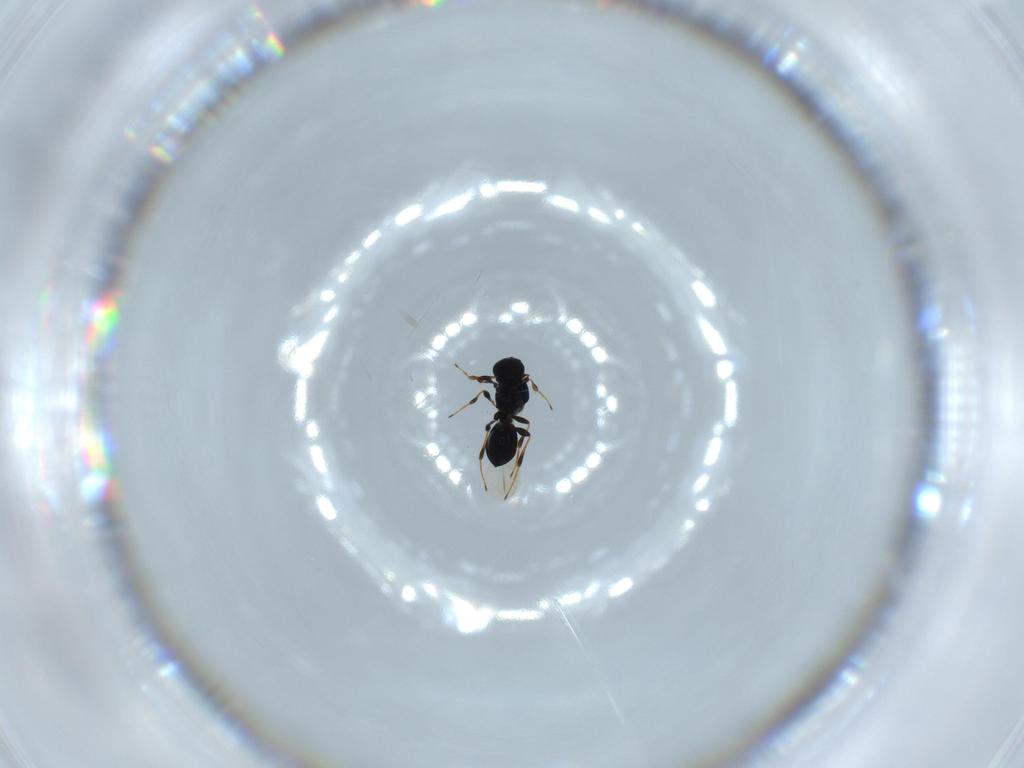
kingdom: Animalia
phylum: Arthropoda
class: Insecta
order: Hymenoptera
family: Platygastridae
